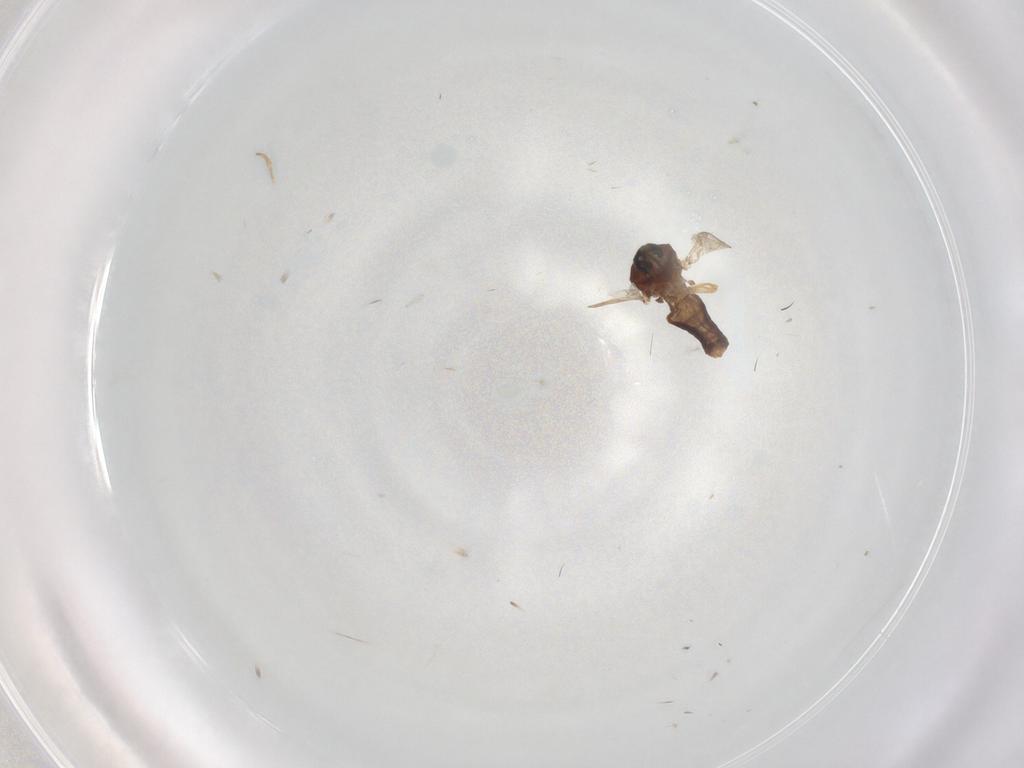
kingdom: Animalia
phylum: Arthropoda
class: Insecta
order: Diptera
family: Ceratopogonidae
